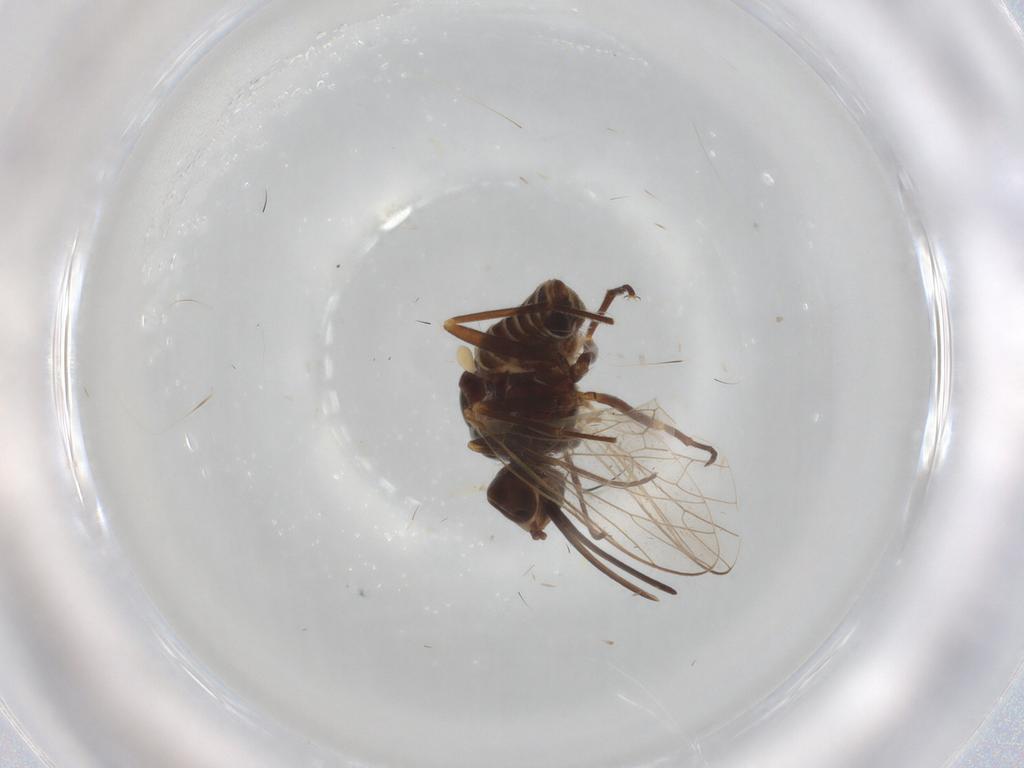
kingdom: Animalia
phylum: Arthropoda
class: Insecta
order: Diptera
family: Bombyliidae
